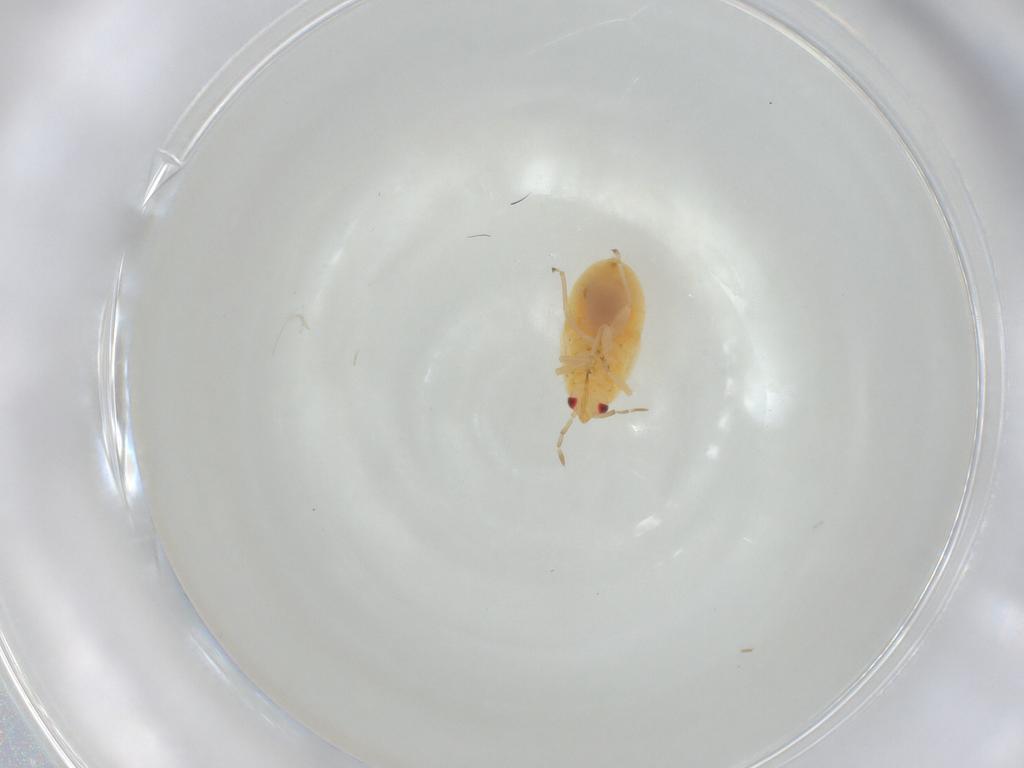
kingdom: Animalia
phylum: Arthropoda
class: Insecta
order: Hemiptera
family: Anthocoridae
